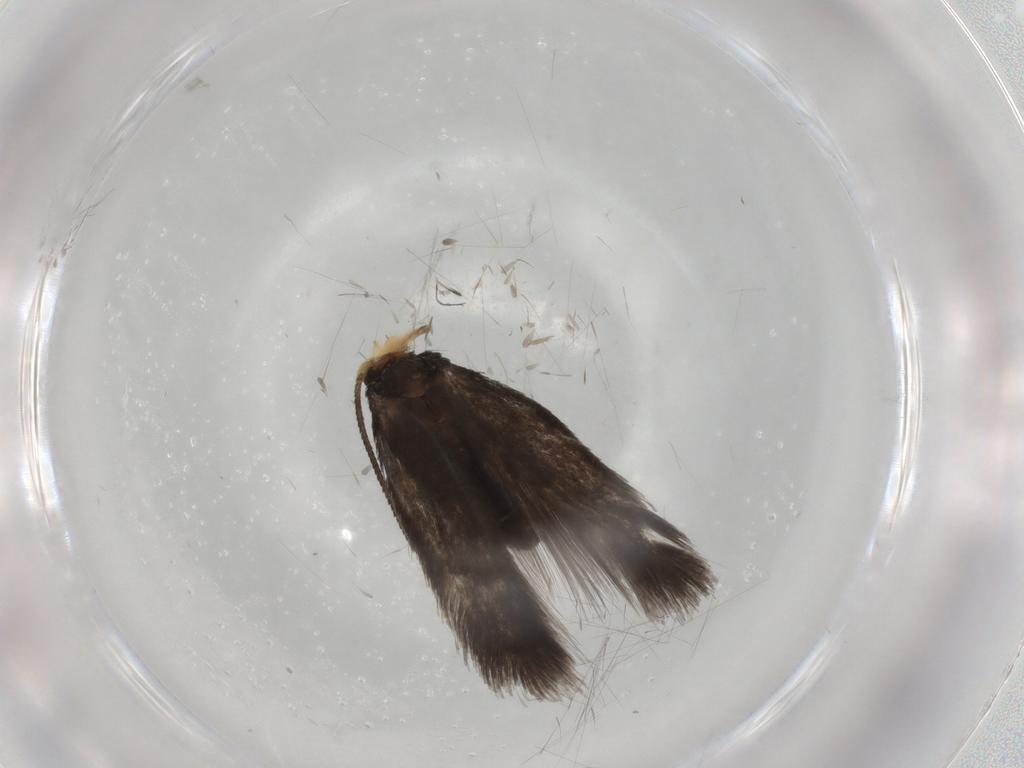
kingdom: Animalia
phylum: Arthropoda
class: Insecta
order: Lepidoptera
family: Nepticulidae
